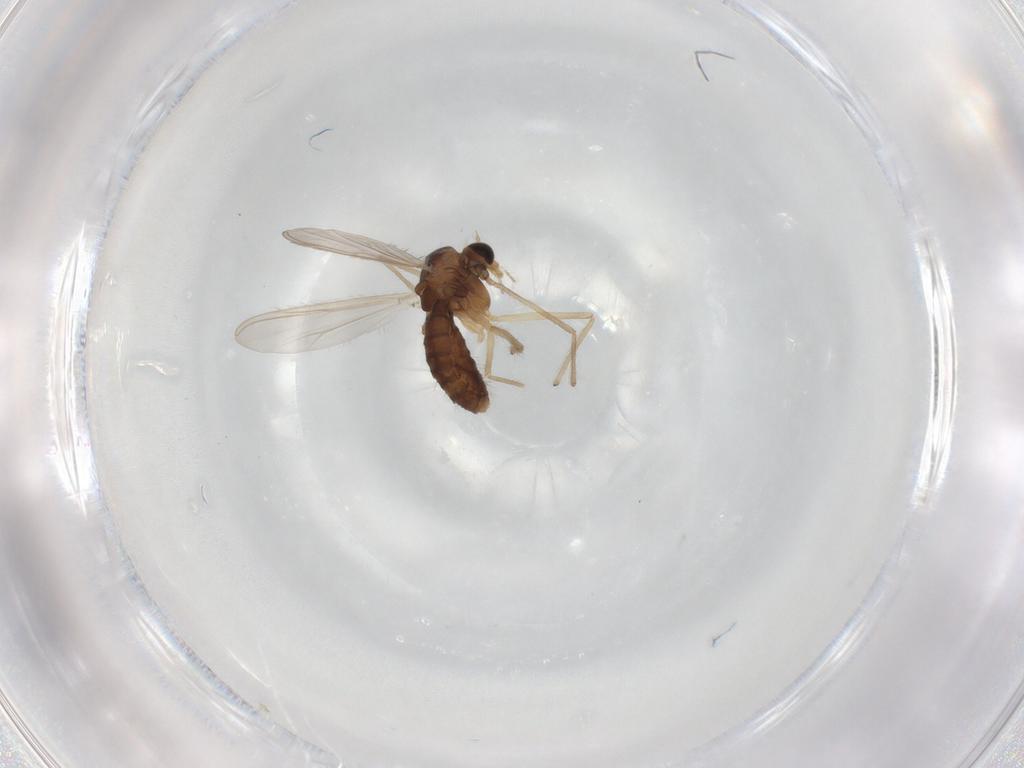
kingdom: Animalia
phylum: Arthropoda
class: Insecta
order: Diptera
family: Chironomidae
